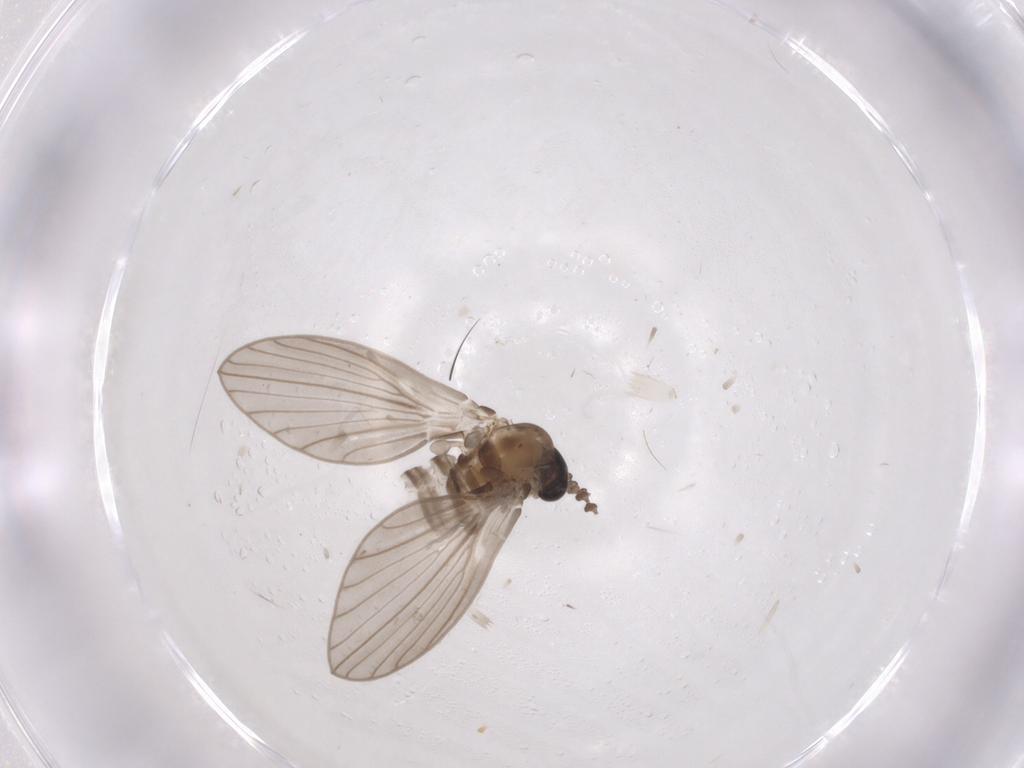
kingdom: Animalia
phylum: Arthropoda
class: Insecta
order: Diptera
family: Psychodidae
